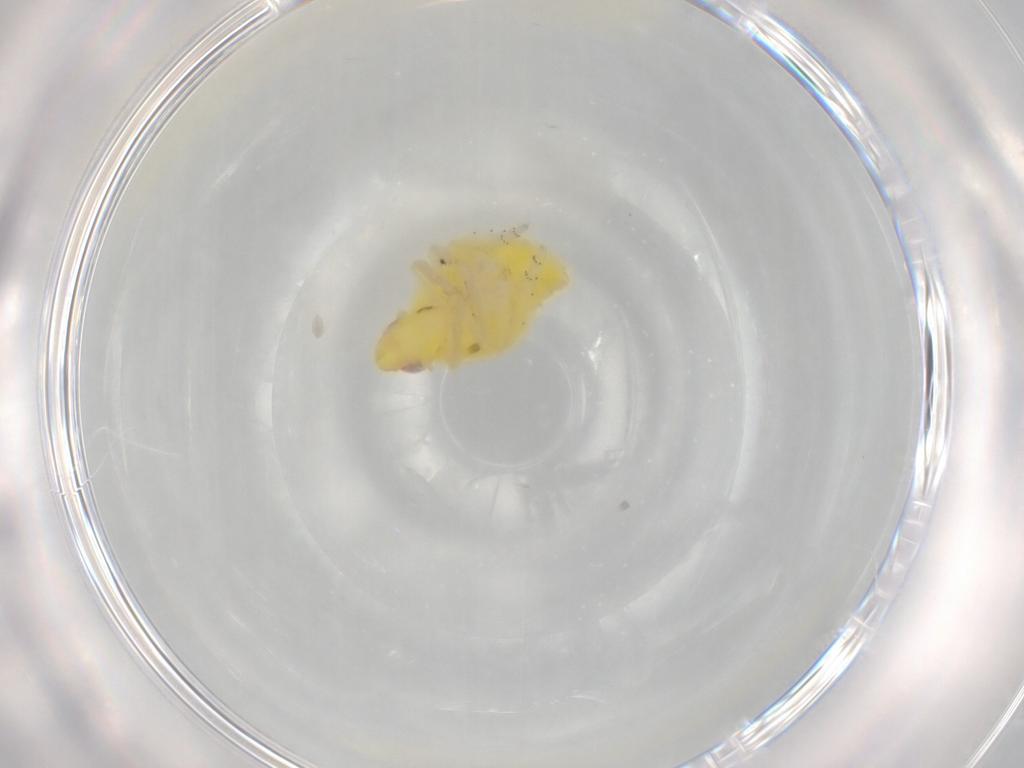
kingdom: Animalia
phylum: Arthropoda
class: Insecta
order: Hemiptera
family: Tropiduchidae
